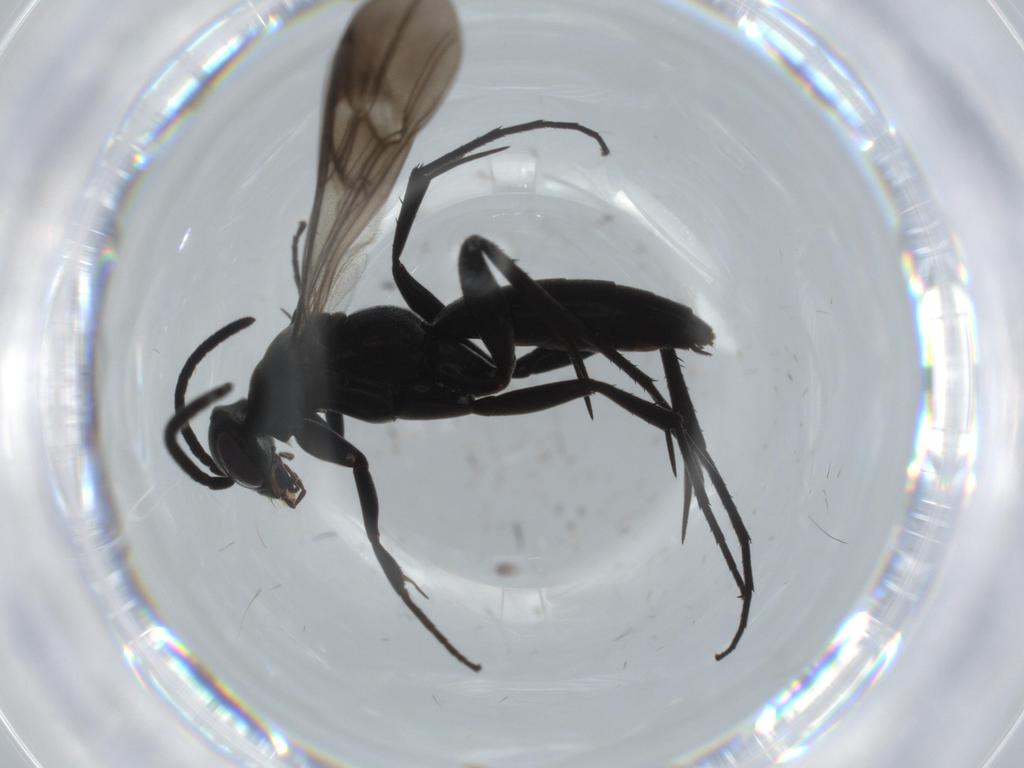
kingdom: Animalia
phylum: Arthropoda
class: Insecta
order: Hymenoptera
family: Pompilidae
